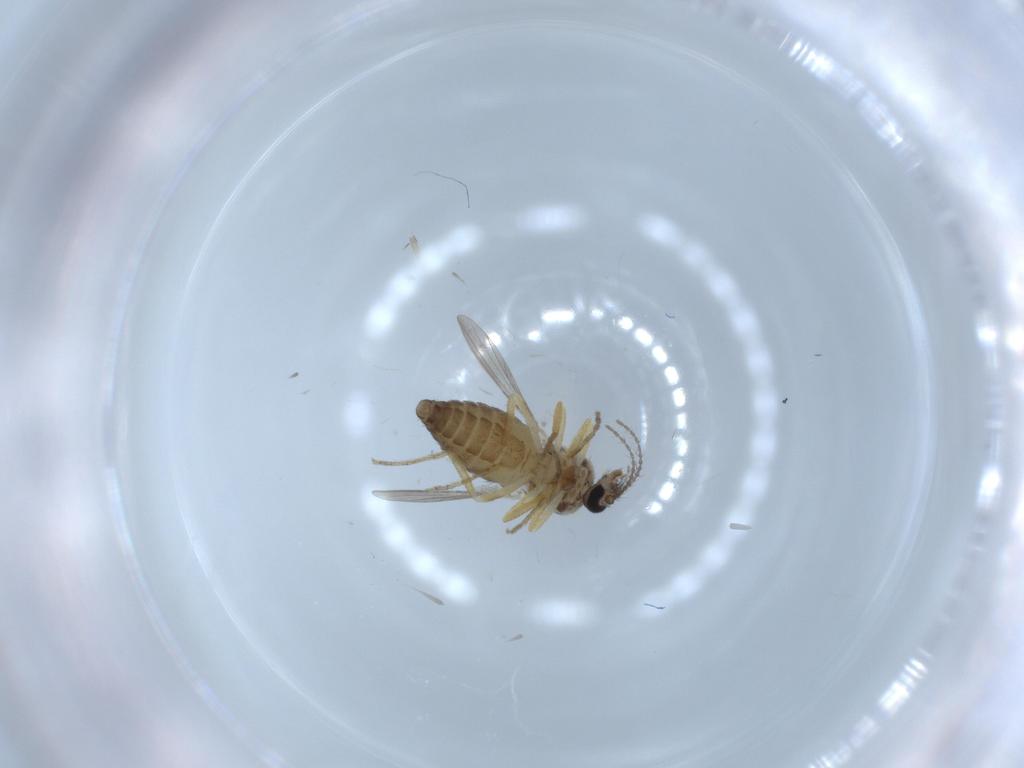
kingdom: Animalia
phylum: Arthropoda
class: Insecta
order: Diptera
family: Ceratopogonidae
